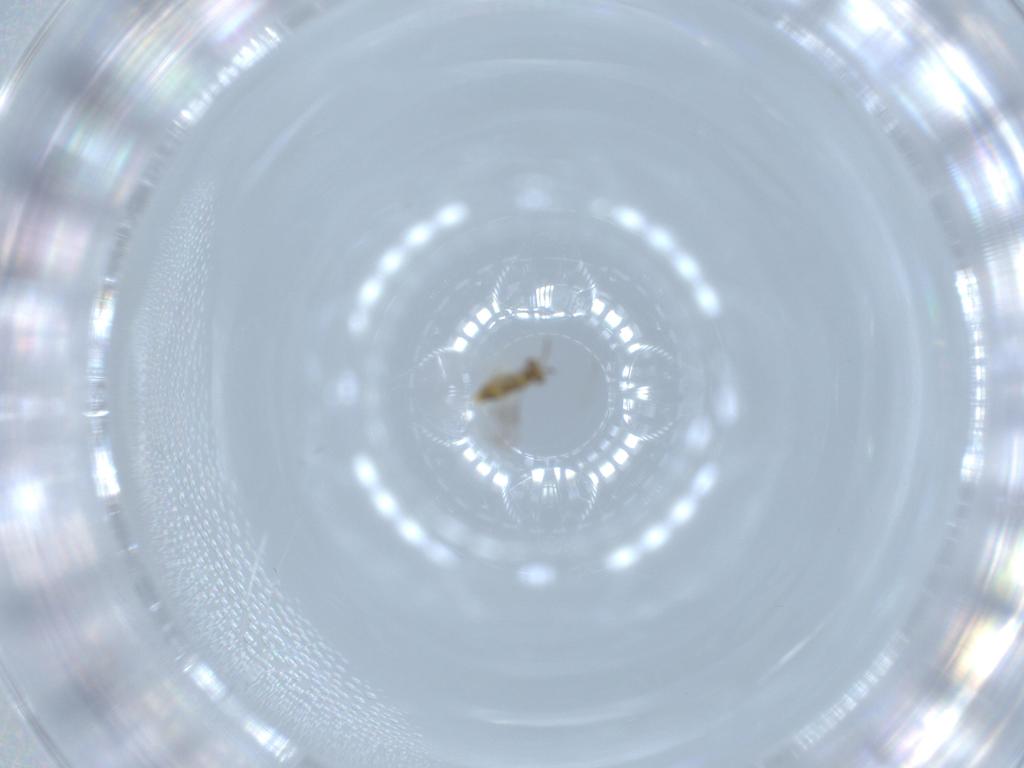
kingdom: Animalia
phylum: Arthropoda
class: Insecta
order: Hymenoptera
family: Aphelinidae
